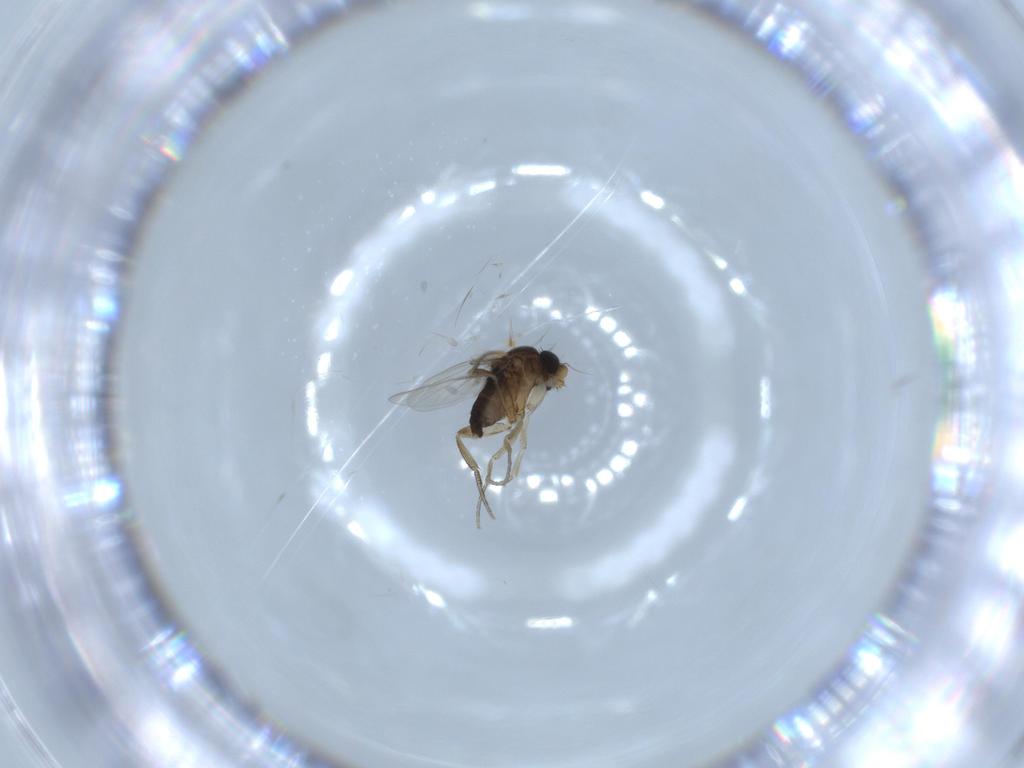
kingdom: Animalia
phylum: Arthropoda
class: Insecta
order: Diptera
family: Phoridae
